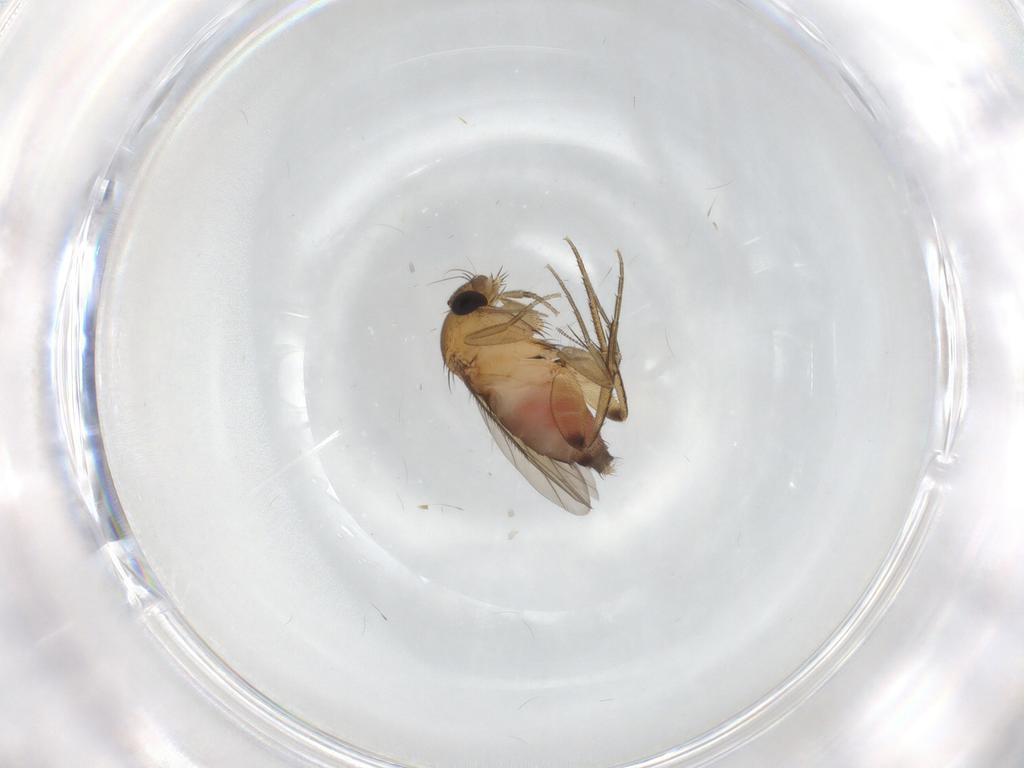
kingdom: Animalia
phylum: Arthropoda
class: Insecta
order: Diptera
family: Phoridae
